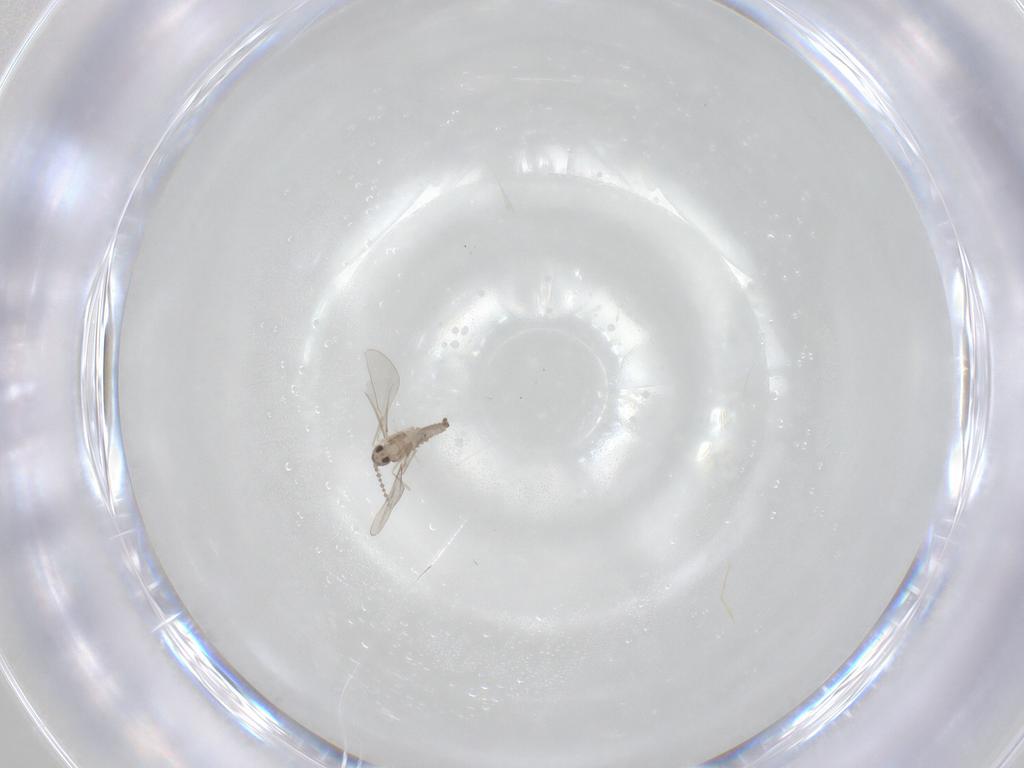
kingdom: Animalia
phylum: Arthropoda
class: Insecta
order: Diptera
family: Cecidomyiidae
